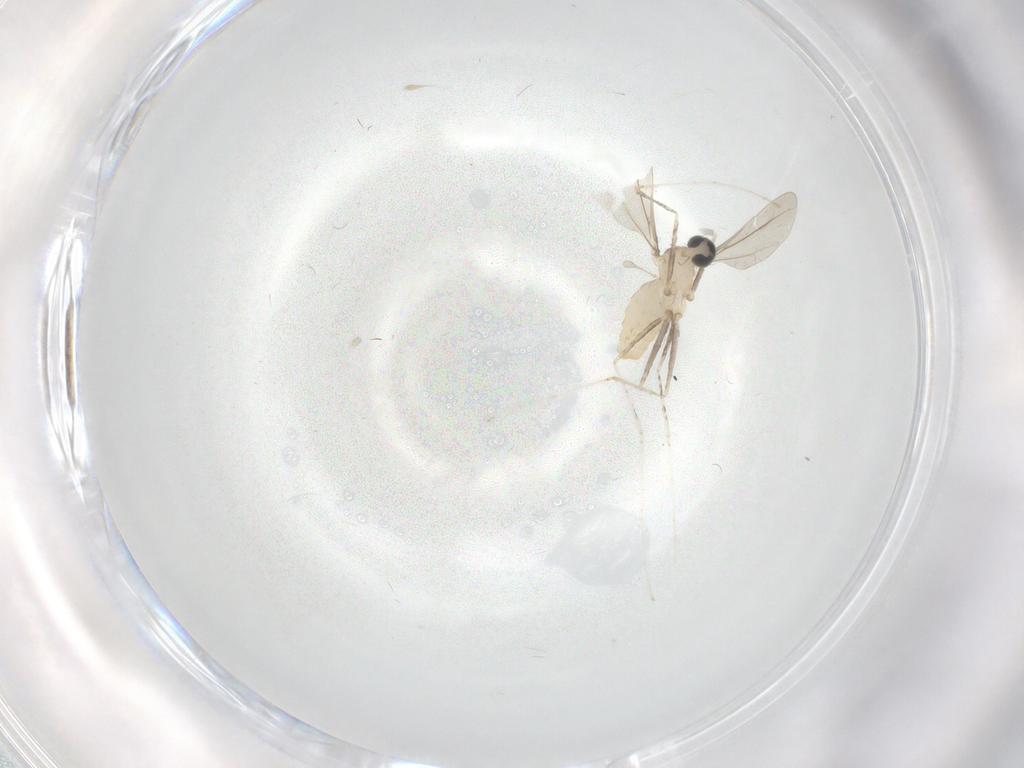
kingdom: Animalia
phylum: Arthropoda
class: Insecta
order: Diptera
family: Cecidomyiidae
